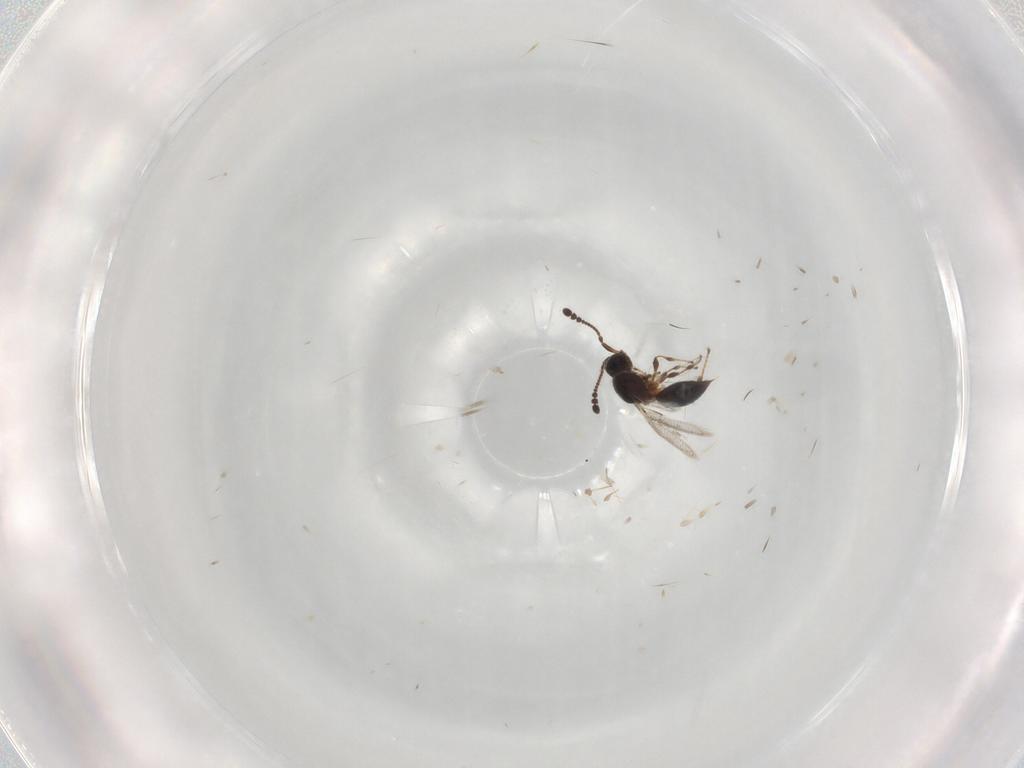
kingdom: Animalia
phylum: Arthropoda
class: Insecta
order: Hymenoptera
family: Diapriidae
